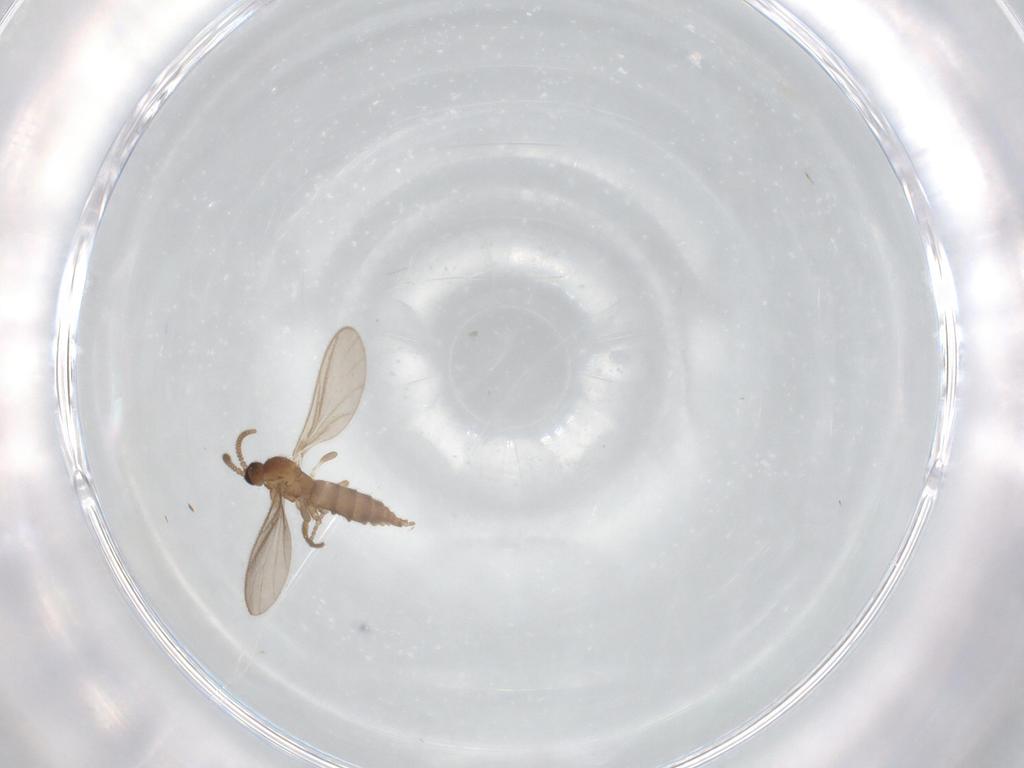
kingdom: Animalia
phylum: Arthropoda
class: Insecta
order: Diptera
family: Sciaridae
